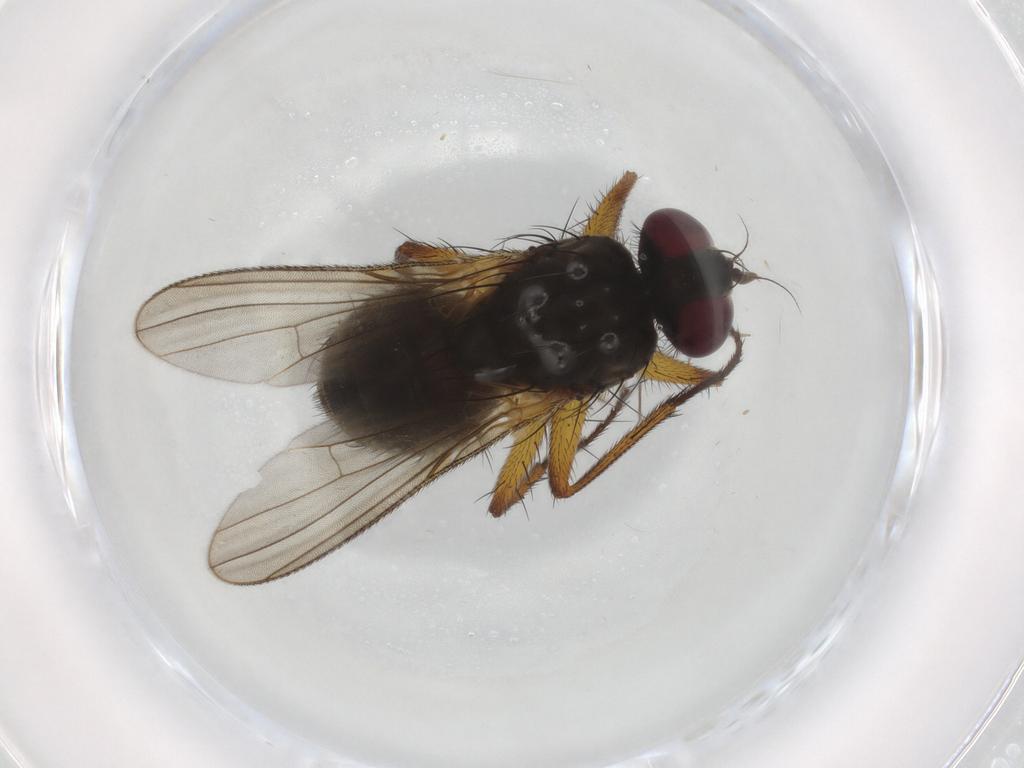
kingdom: Animalia
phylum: Arthropoda
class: Insecta
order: Diptera
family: Muscidae
